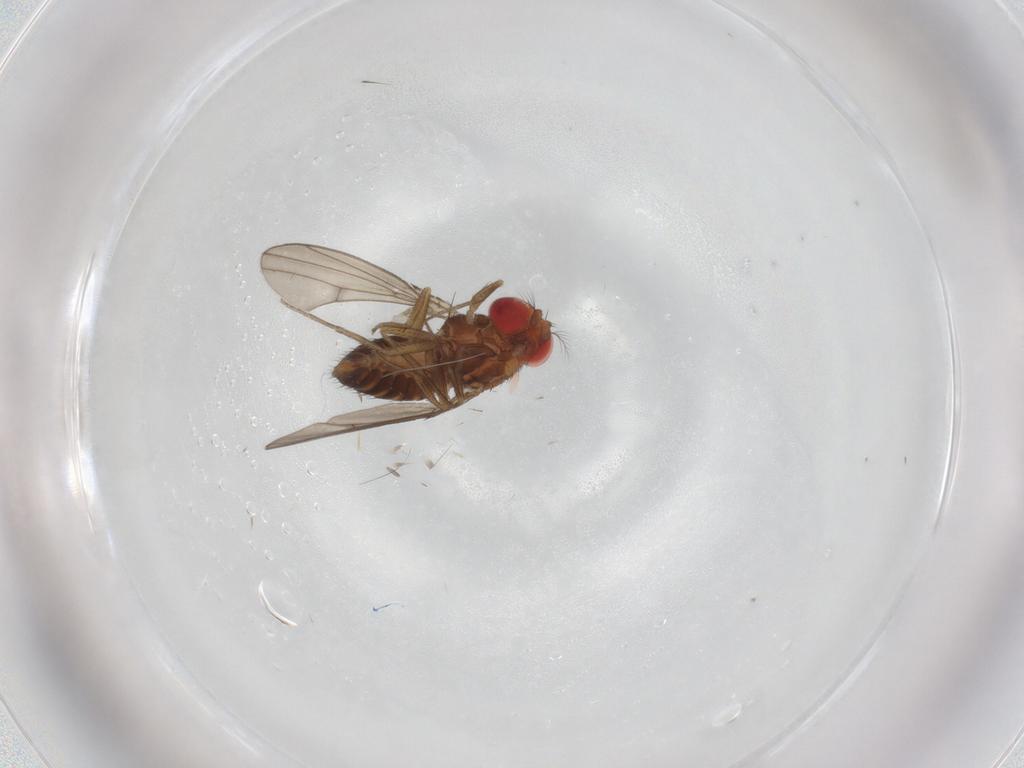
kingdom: Animalia
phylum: Arthropoda
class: Insecta
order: Diptera
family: Drosophilidae
